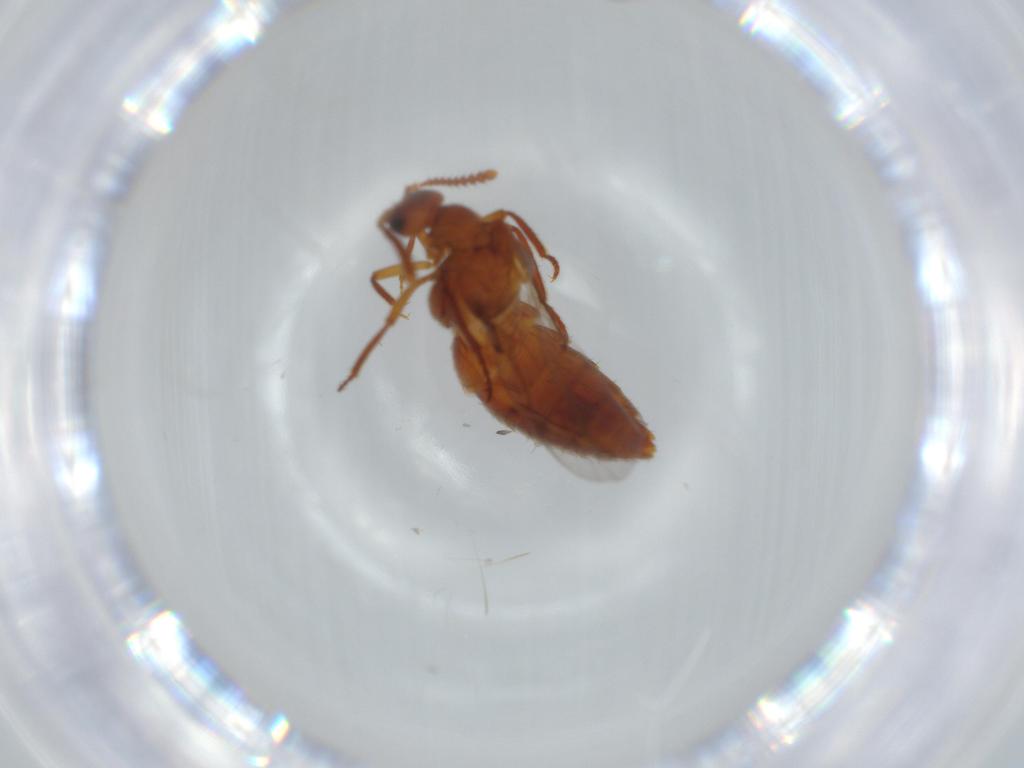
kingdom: Animalia
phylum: Arthropoda
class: Insecta
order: Coleoptera
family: Staphylinidae
